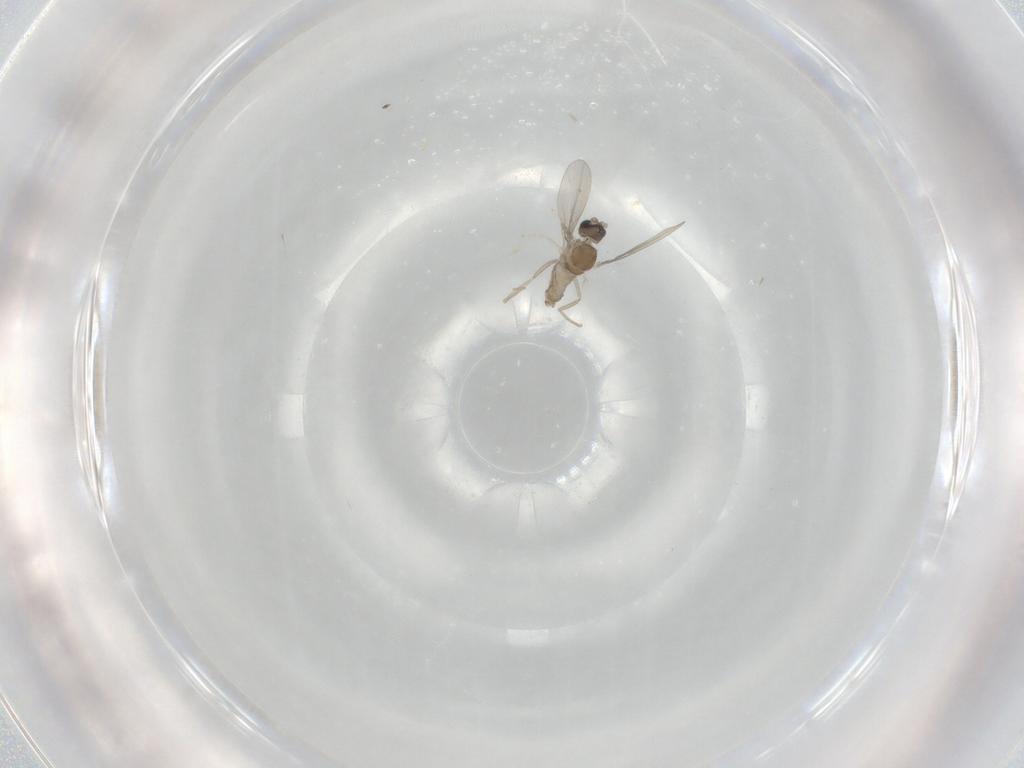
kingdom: Animalia
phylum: Arthropoda
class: Insecta
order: Diptera
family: Cecidomyiidae
